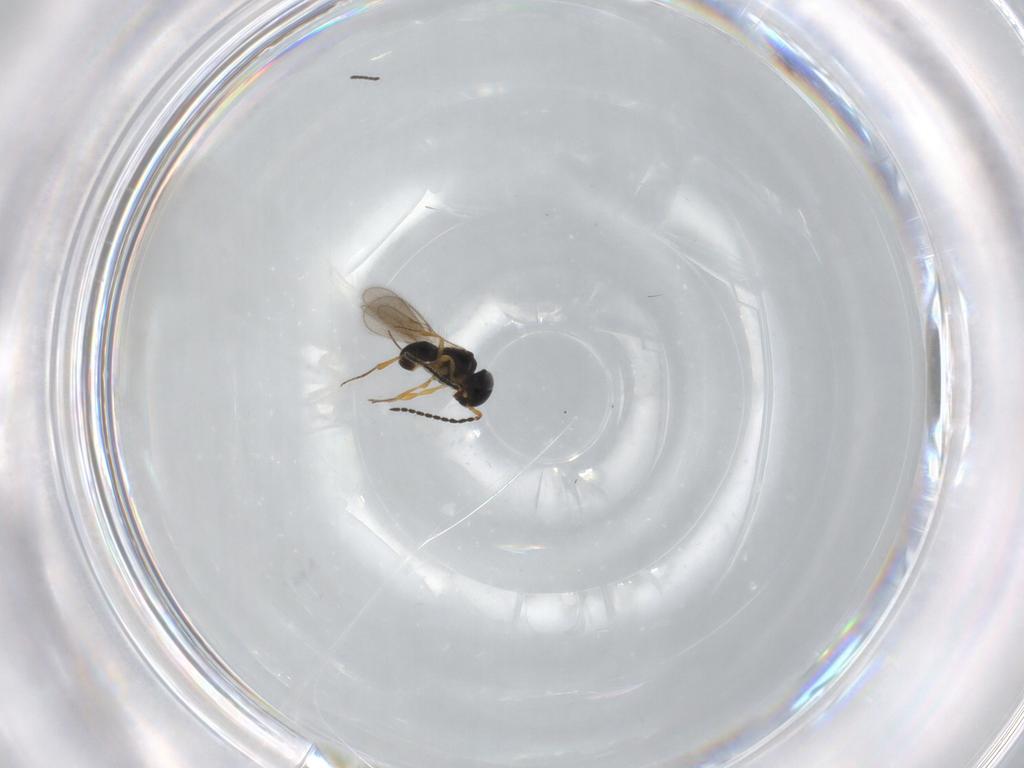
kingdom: Animalia
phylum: Arthropoda
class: Insecta
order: Hymenoptera
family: Scelionidae
